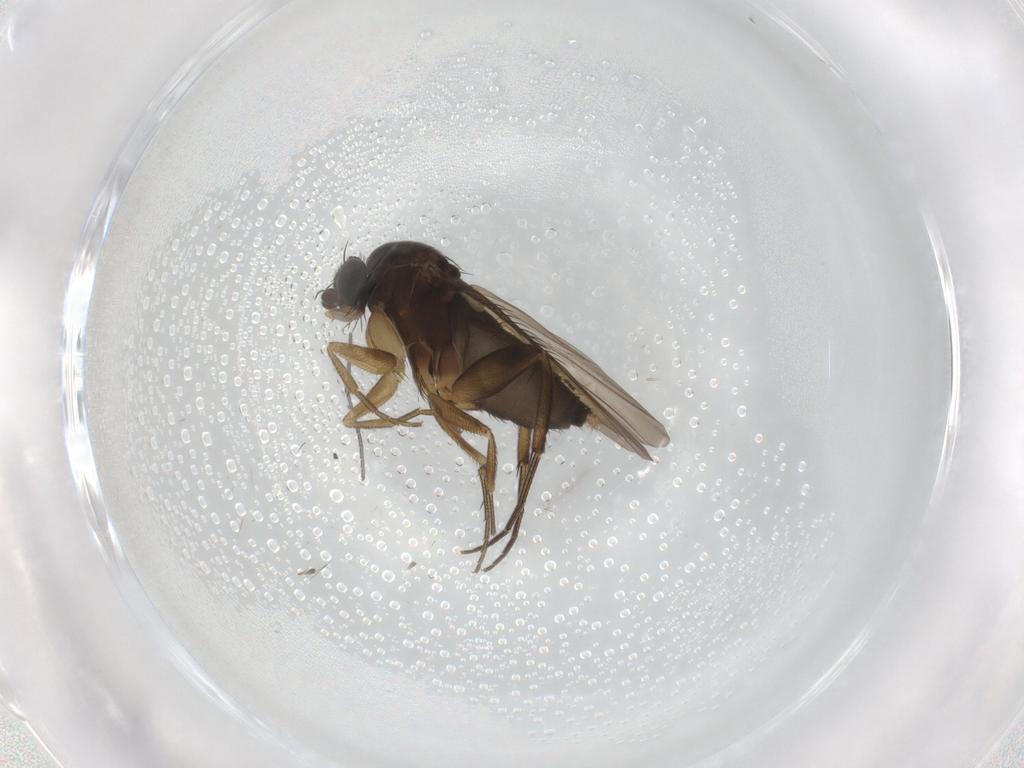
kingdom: Animalia
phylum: Arthropoda
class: Insecta
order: Diptera
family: Phoridae
